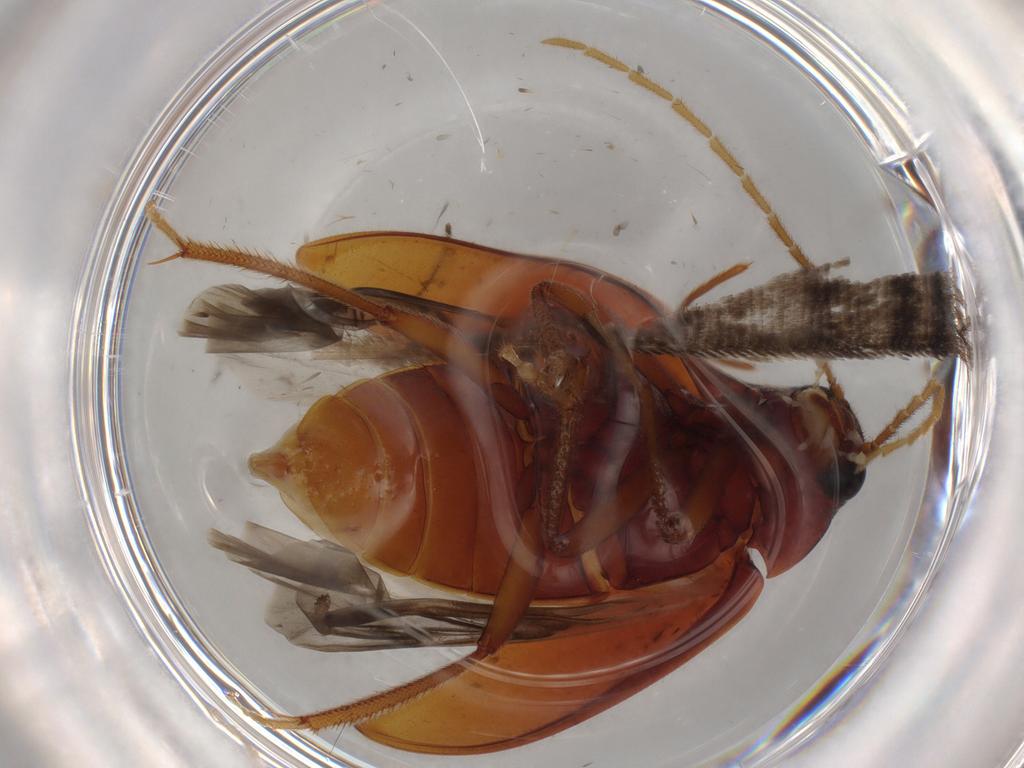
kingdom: Animalia
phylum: Arthropoda
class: Insecta
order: Coleoptera
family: Ptilodactylidae
